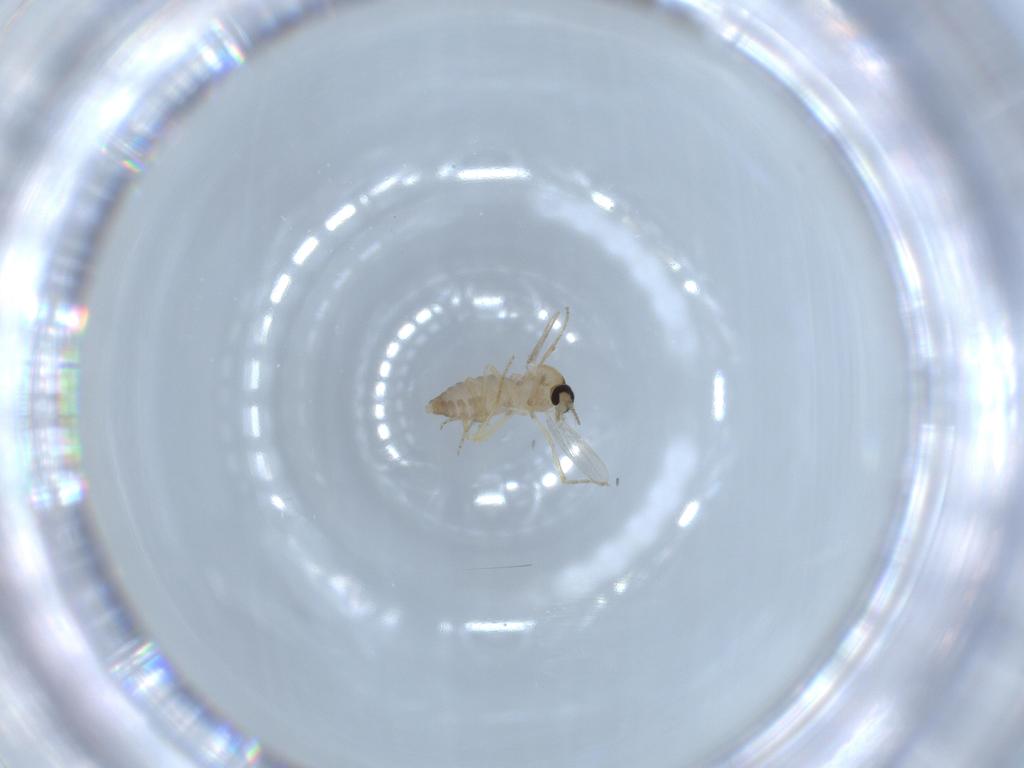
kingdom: Animalia
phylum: Arthropoda
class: Insecta
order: Diptera
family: Ceratopogonidae
